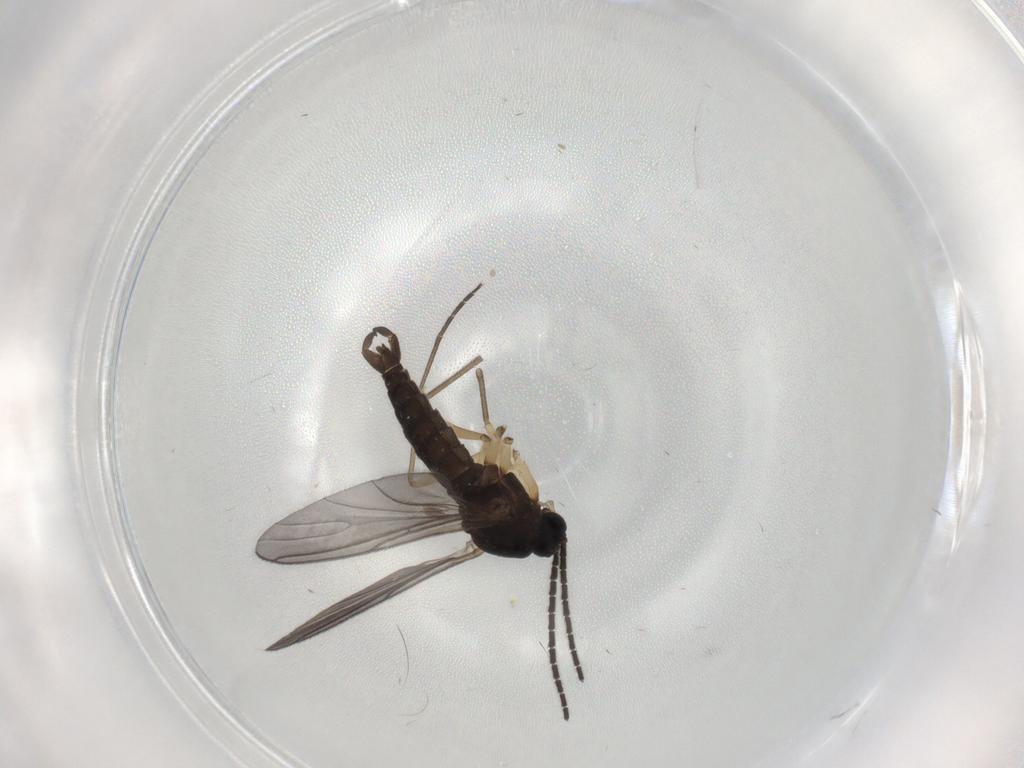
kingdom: Animalia
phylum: Arthropoda
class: Insecta
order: Diptera
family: Sciaridae
